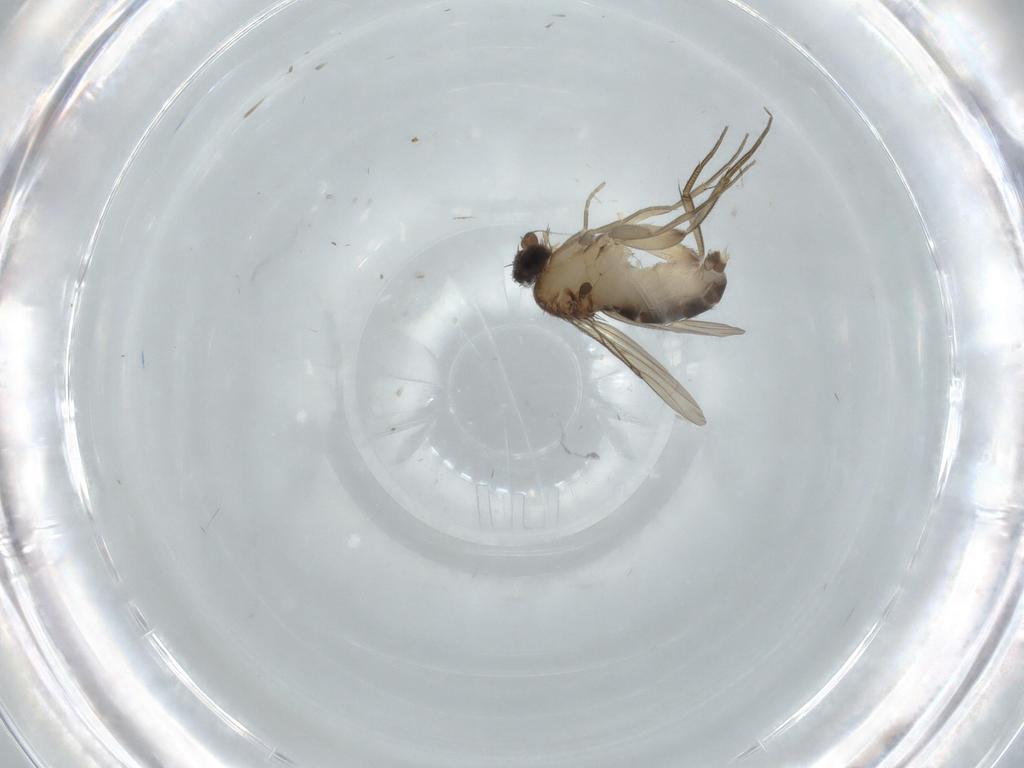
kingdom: Animalia
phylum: Arthropoda
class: Insecta
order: Diptera
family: Phoridae
